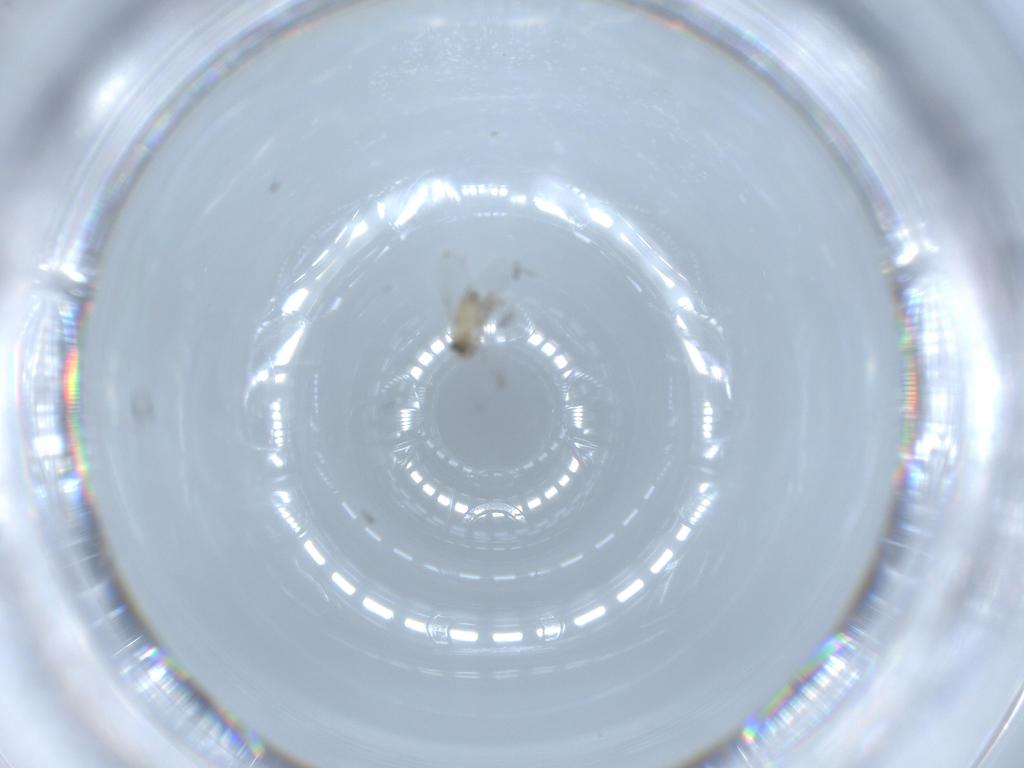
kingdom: Animalia
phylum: Arthropoda
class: Insecta
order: Diptera
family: Cecidomyiidae
